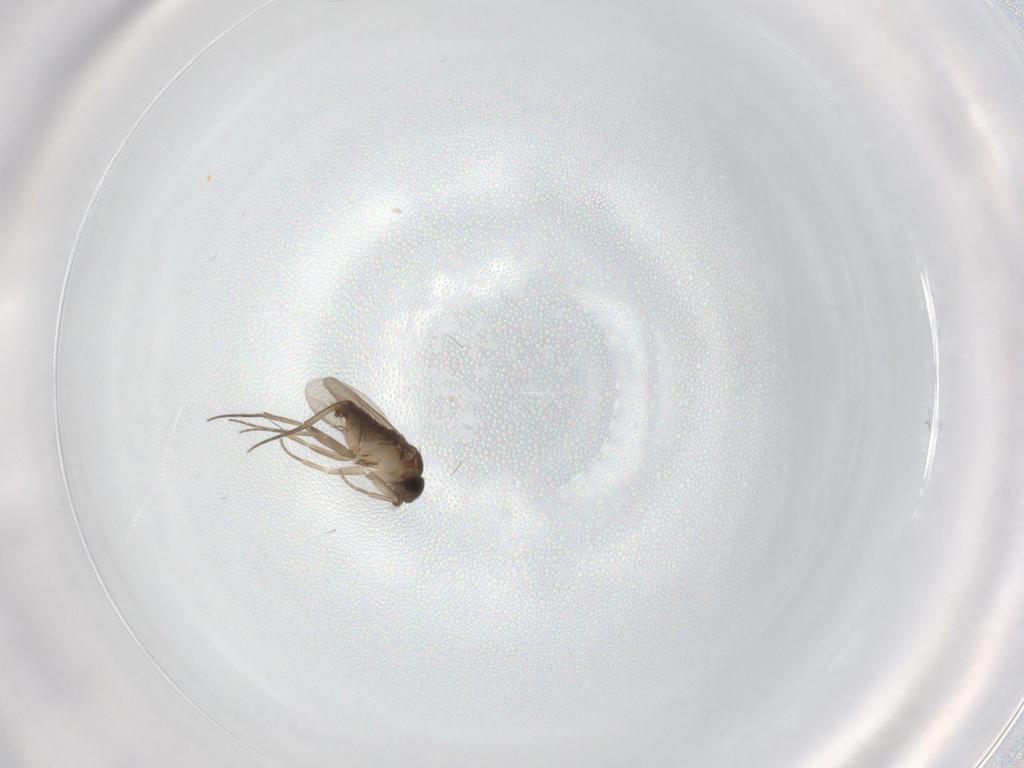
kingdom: Animalia
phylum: Arthropoda
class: Insecta
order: Diptera
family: Phoridae
